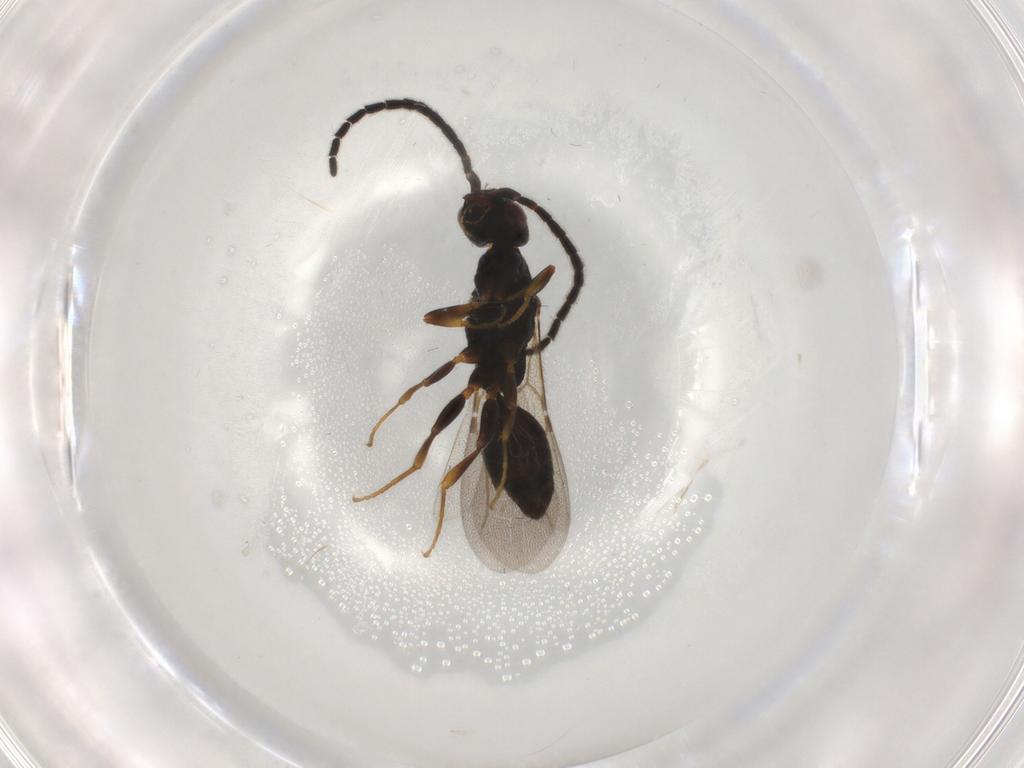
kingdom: Animalia
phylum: Arthropoda
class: Insecta
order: Hymenoptera
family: Bethylidae
